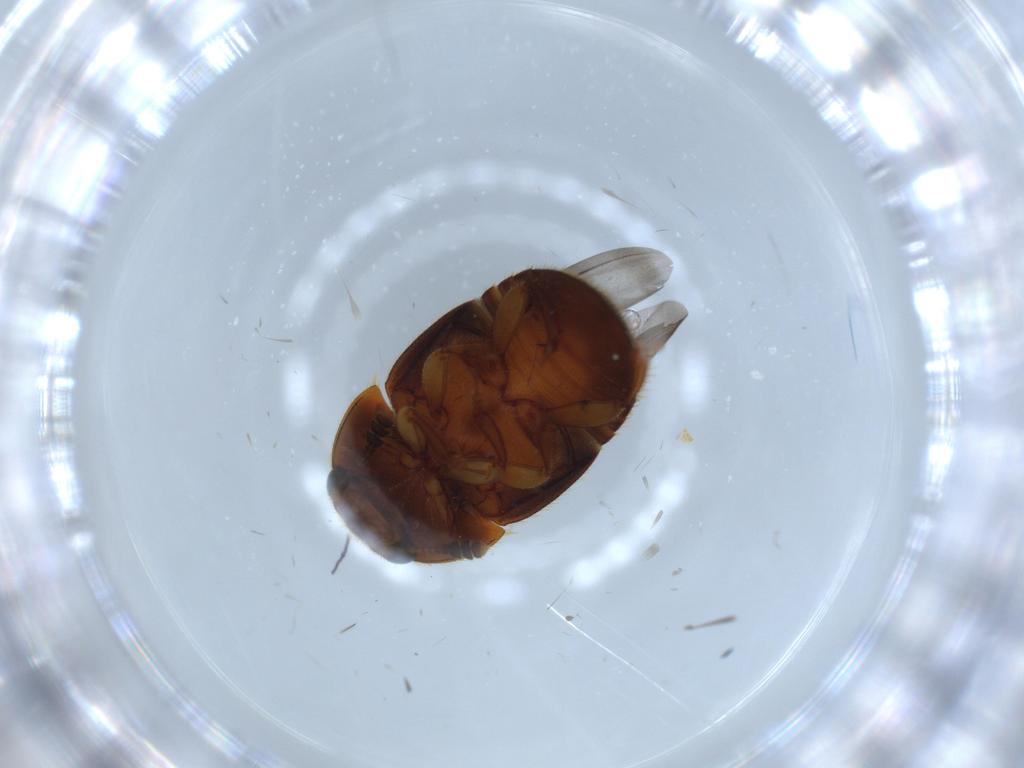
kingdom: Animalia
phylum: Arthropoda
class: Insecta
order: Coleoptera
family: Nitidulidae
